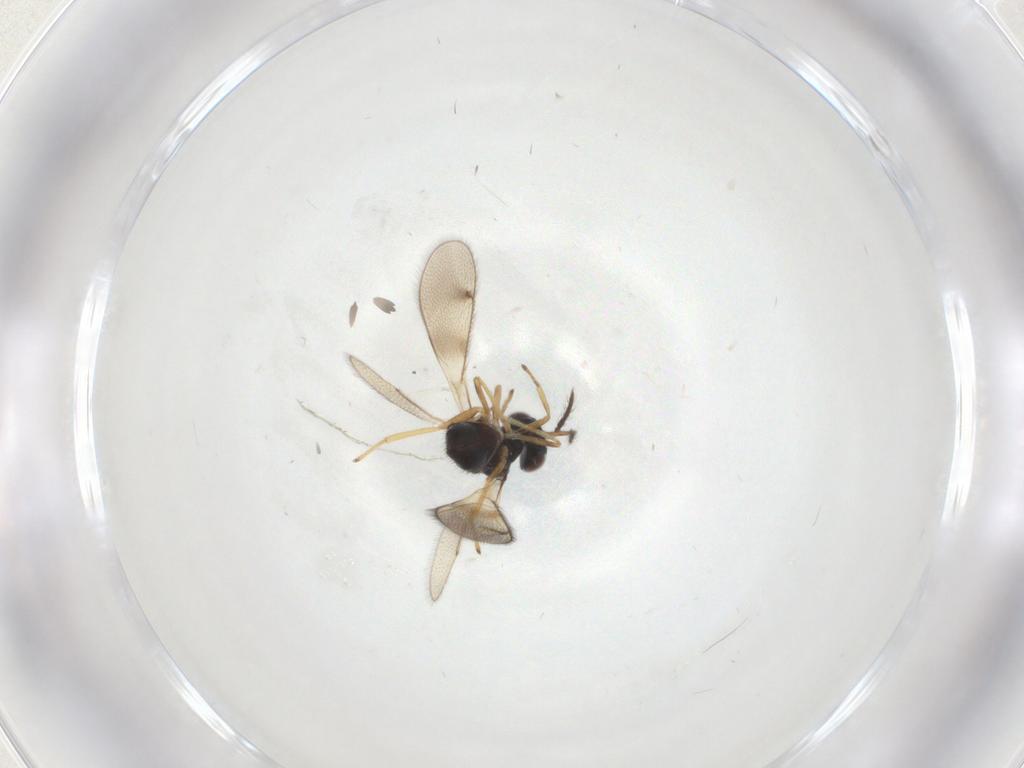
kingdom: Animalia
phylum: Arthropoda
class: Insecta
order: Hymenoptera
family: Eulophidae
